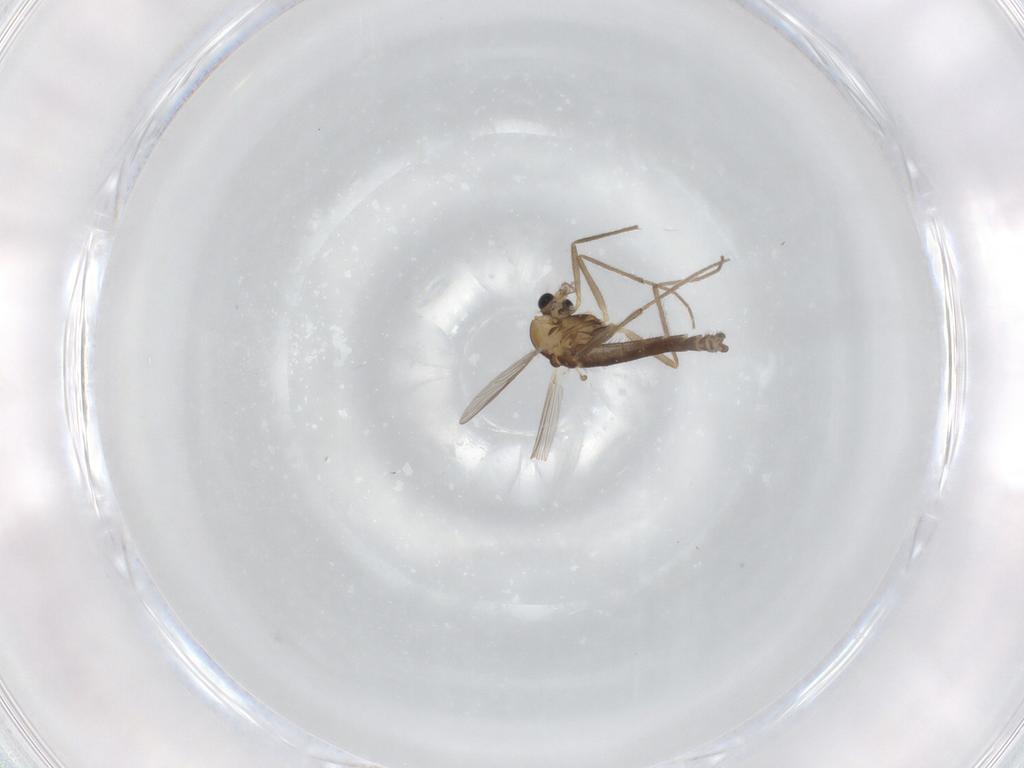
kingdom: Animalia
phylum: Arthropoda
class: Insecta
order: Diptera
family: Chironomidae
